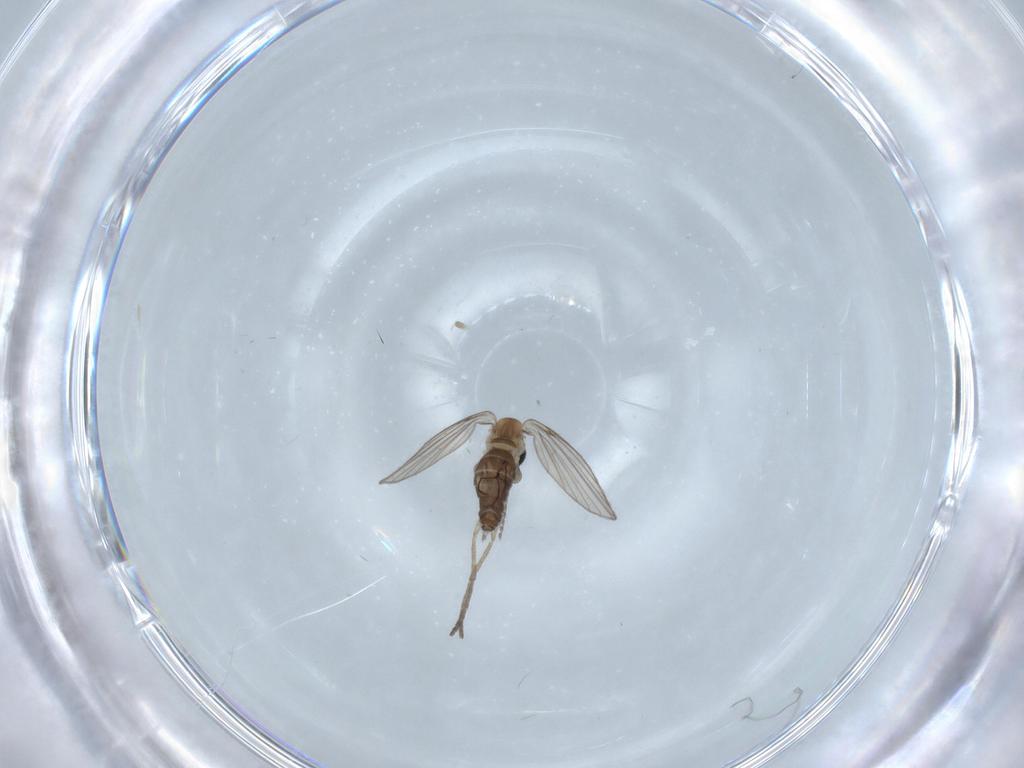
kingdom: Animalia
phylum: Arthropoda
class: Insecta
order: Diptera
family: Psychodidae
